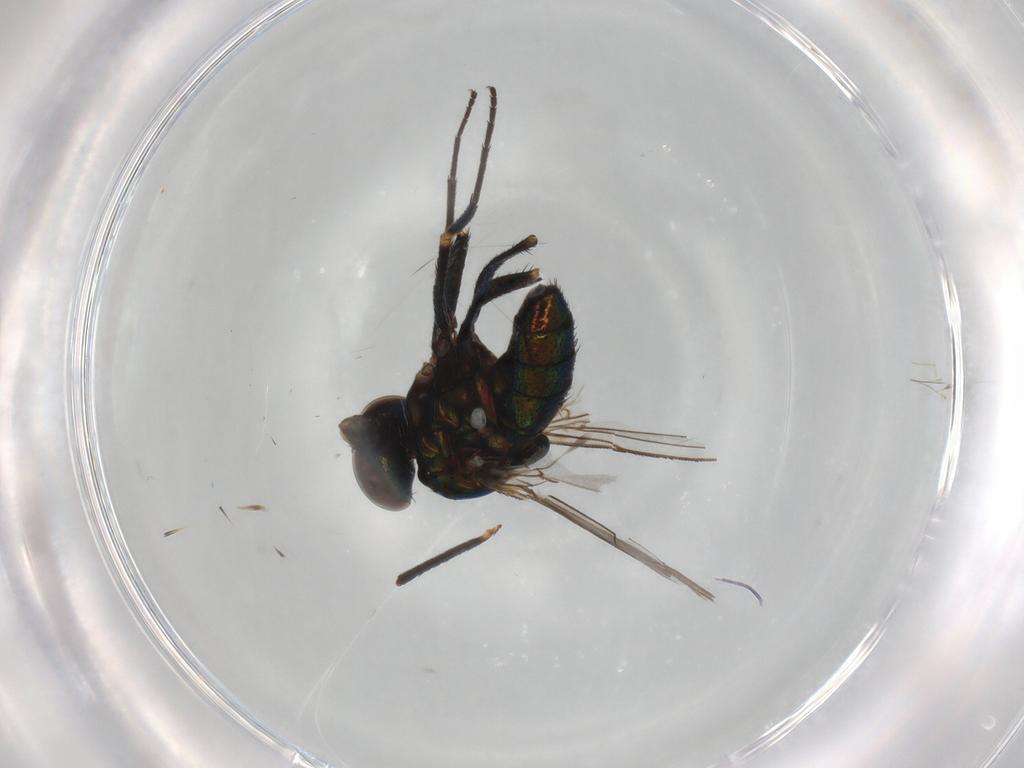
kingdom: Animalia
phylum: Arthropoda
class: Insecta
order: Diptera
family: Dolichopodidae
